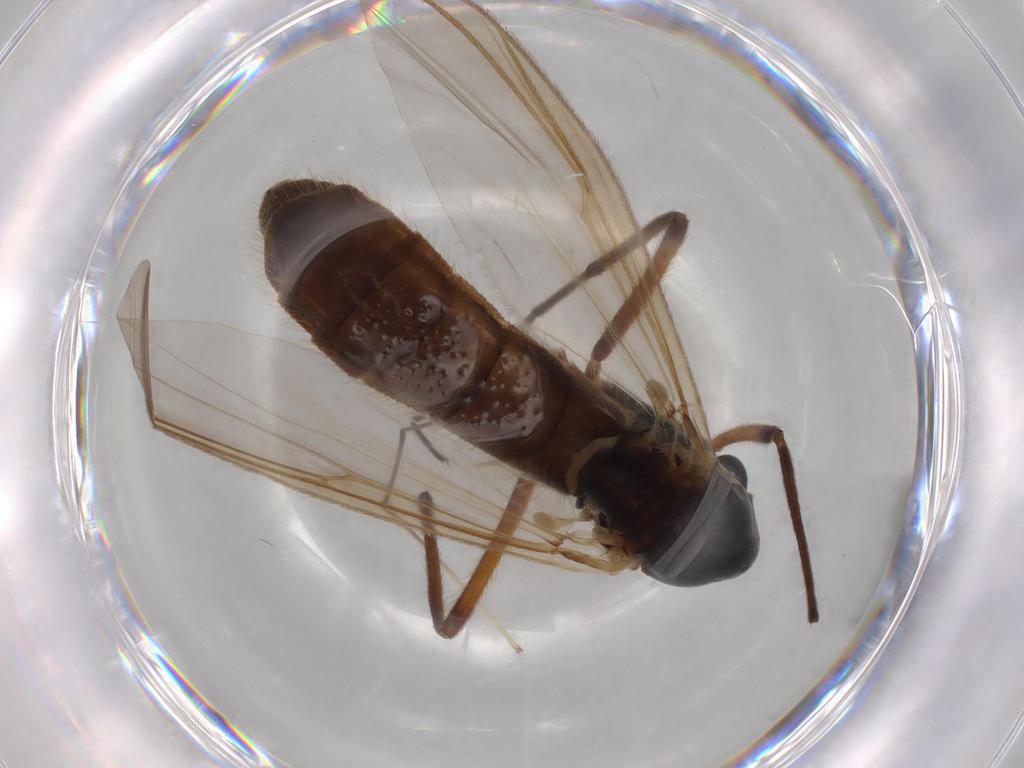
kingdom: Animalia
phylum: Arthropoda
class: Insecta
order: Diptera
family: Chironomidae
